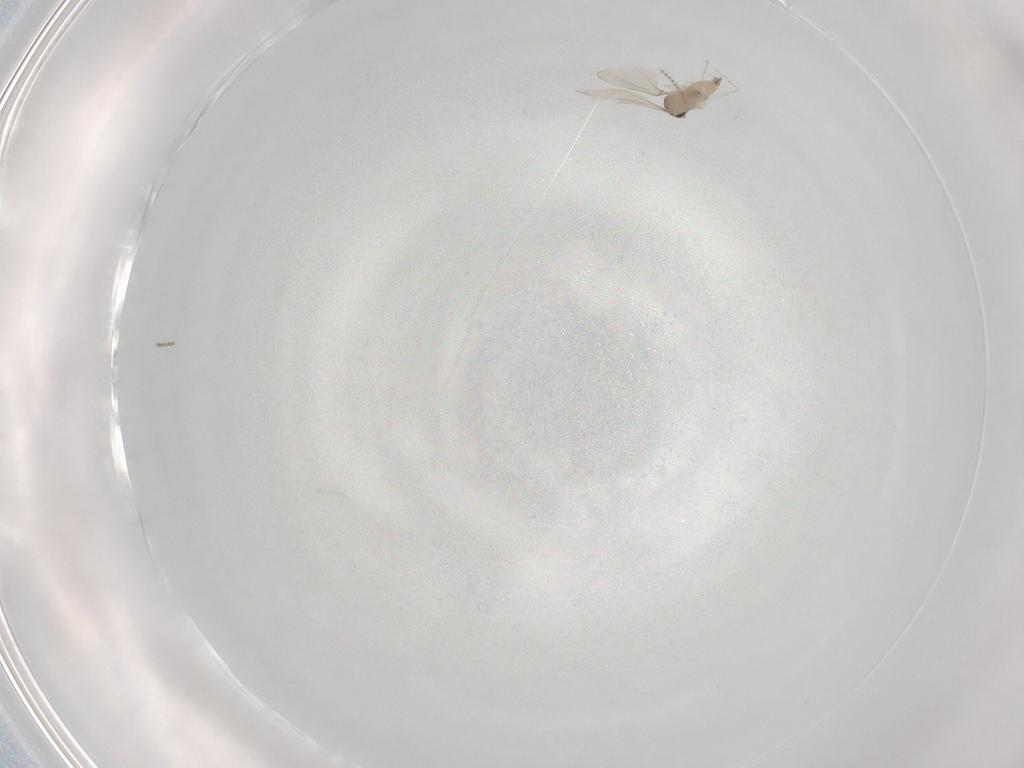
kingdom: Animalia
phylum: Arthropoda
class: Insecta
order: Diptera
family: Cecidomyiidae
